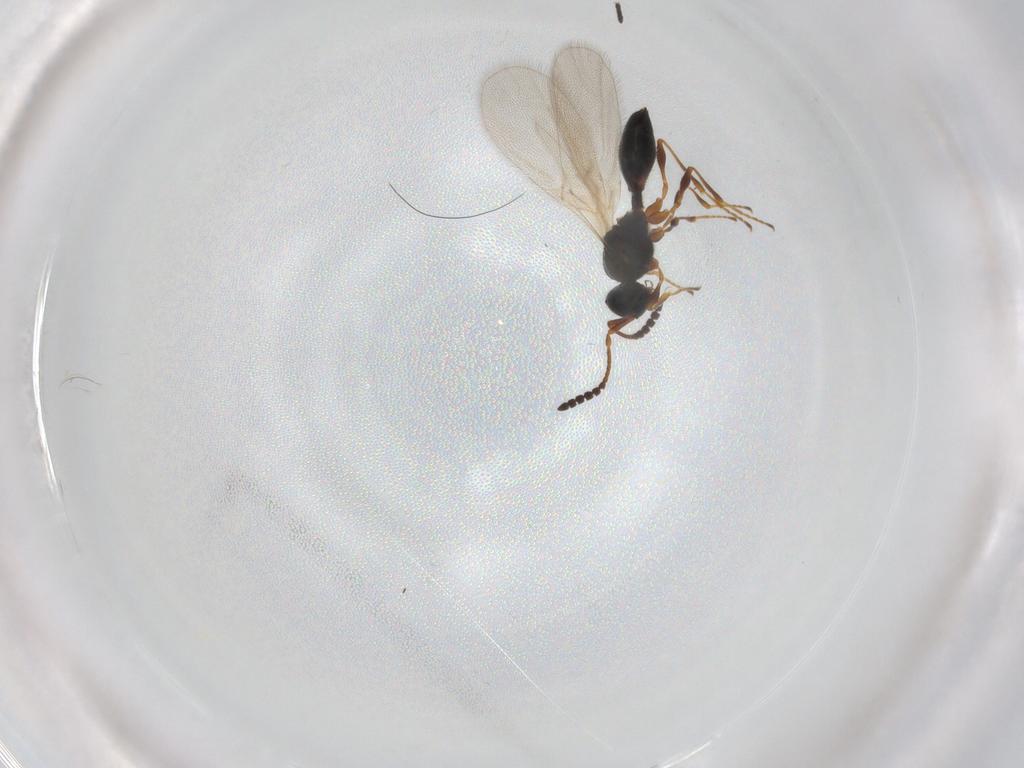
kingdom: Animalia
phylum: Arthropoda
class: Insecta
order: Hymenoptera
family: Diapriidae
